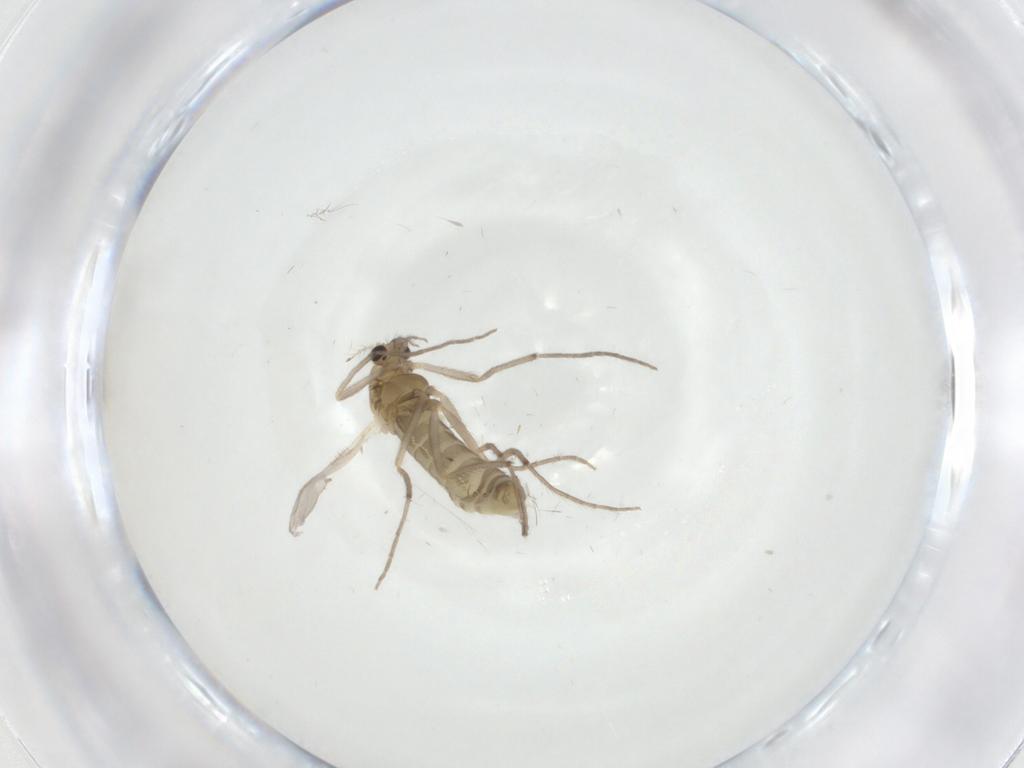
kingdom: Animalia
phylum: Arthropoda
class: Insecta
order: Diptera
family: Chironomidae
